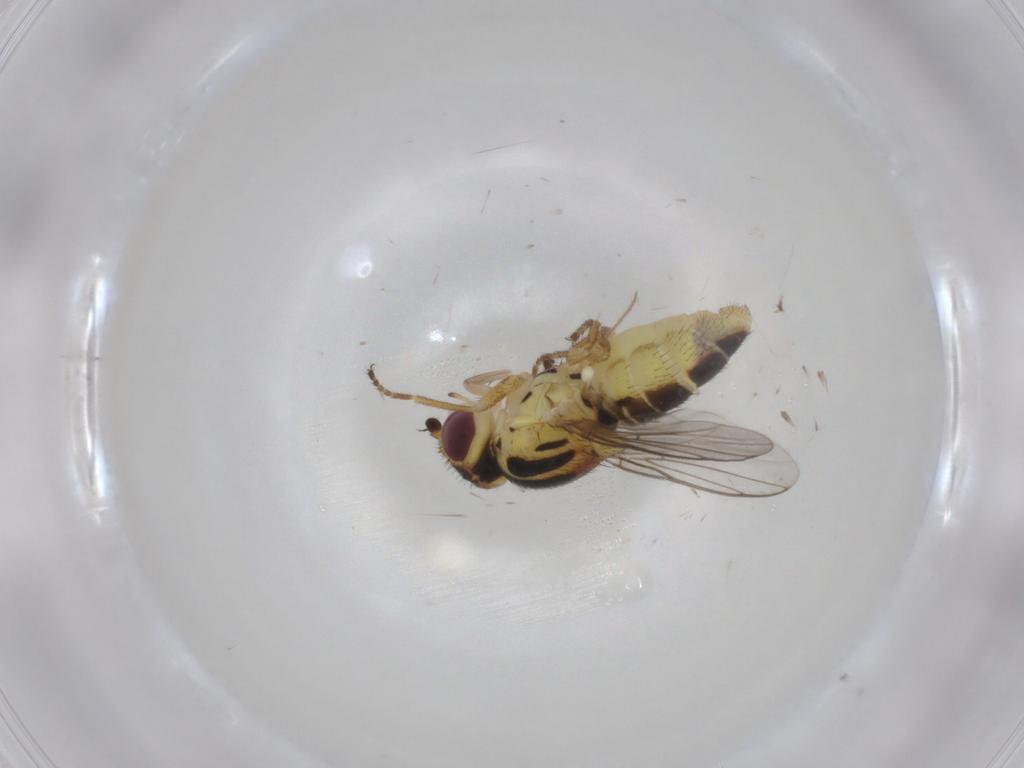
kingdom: Animalia
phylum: Arthropoda
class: Insecta
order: Diptera
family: Chloropidae
